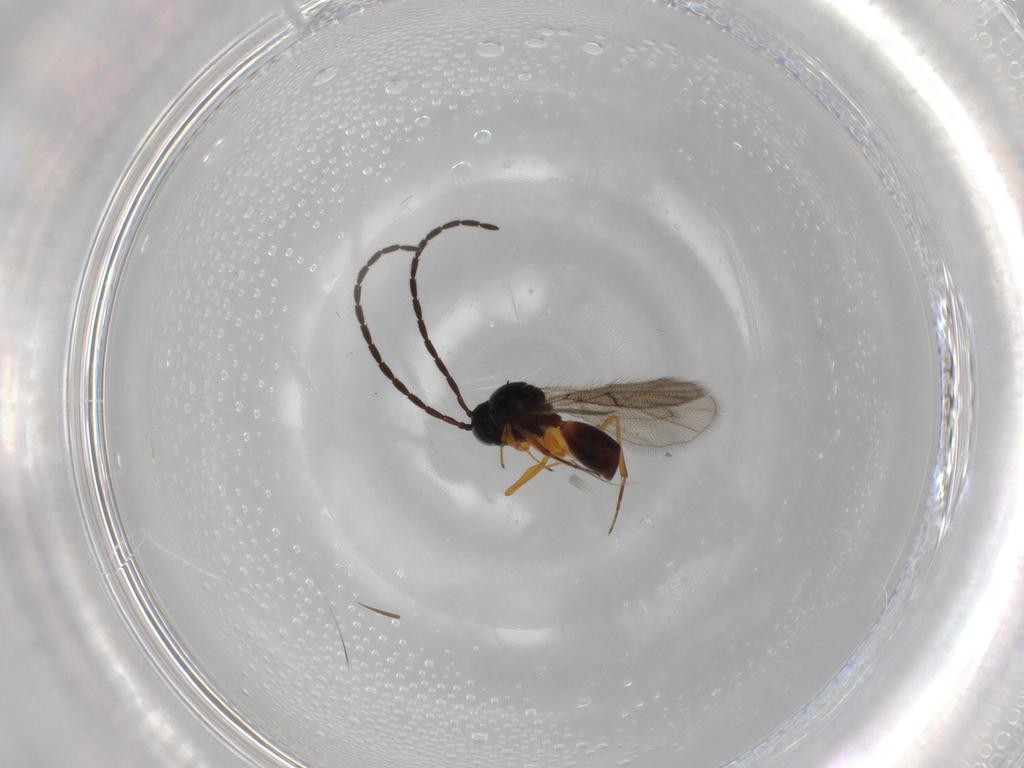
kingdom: Animalia
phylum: Arthropoda
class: Insecta
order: Hymenoptera
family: Figitidae
